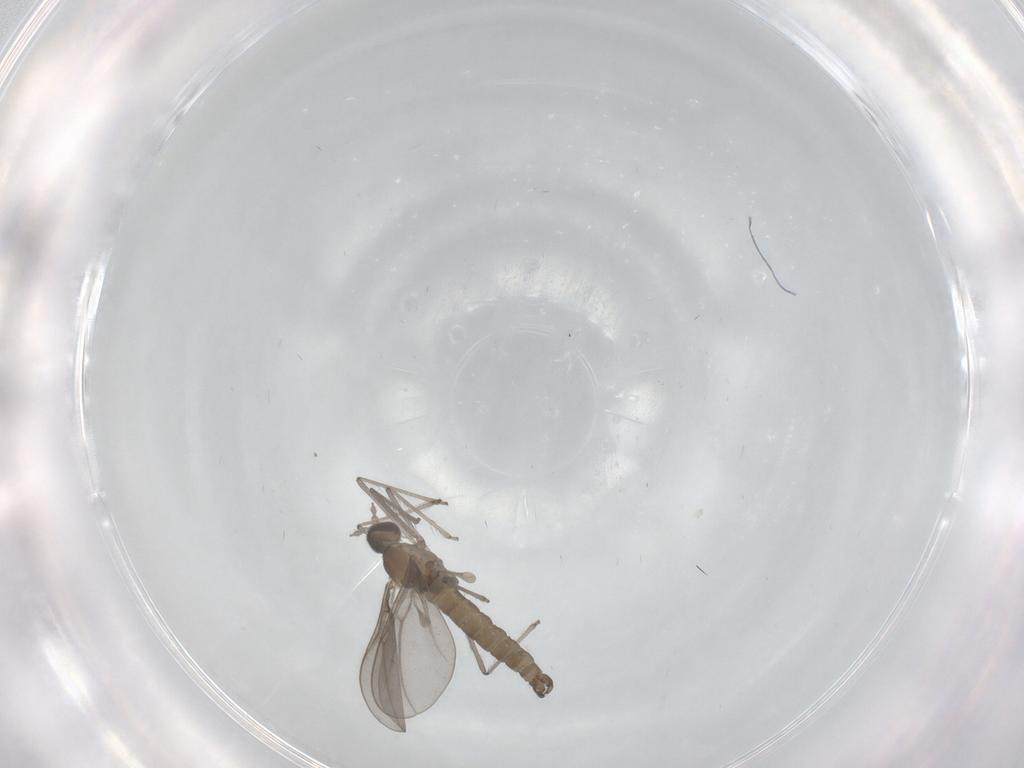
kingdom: Animalia
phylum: Arthropoda
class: Insecta
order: Diptera
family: Cecidomyiidae
